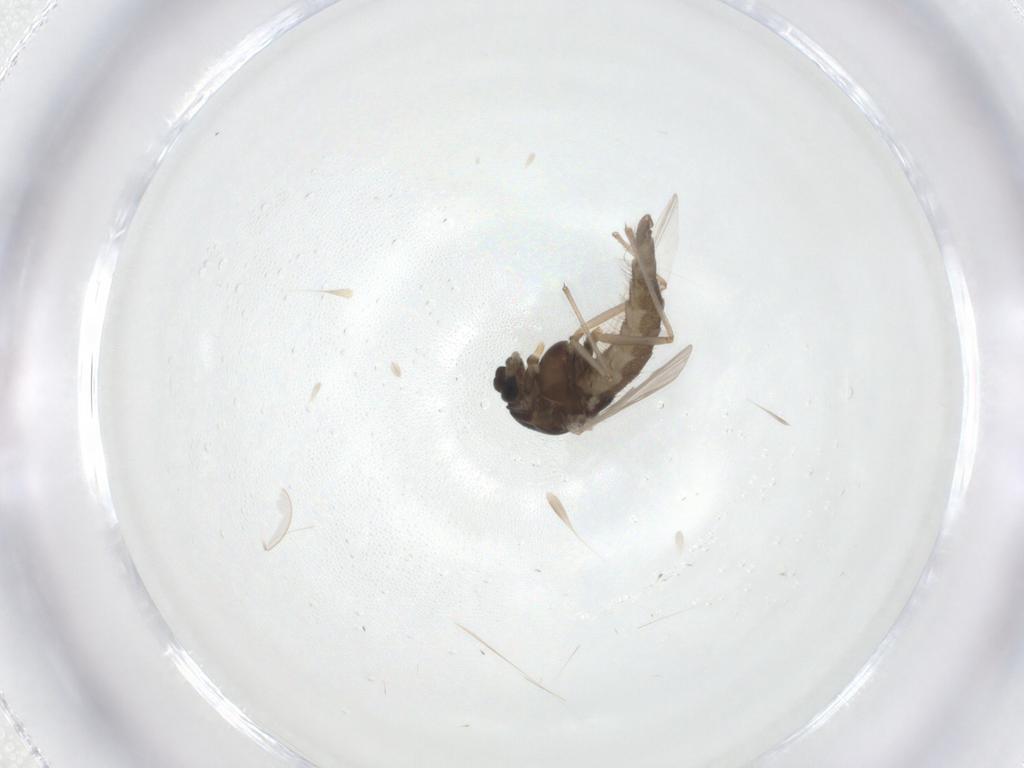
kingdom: Animalia
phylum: Arthropoda
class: Insecta
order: Diptera
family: Chironomidae
